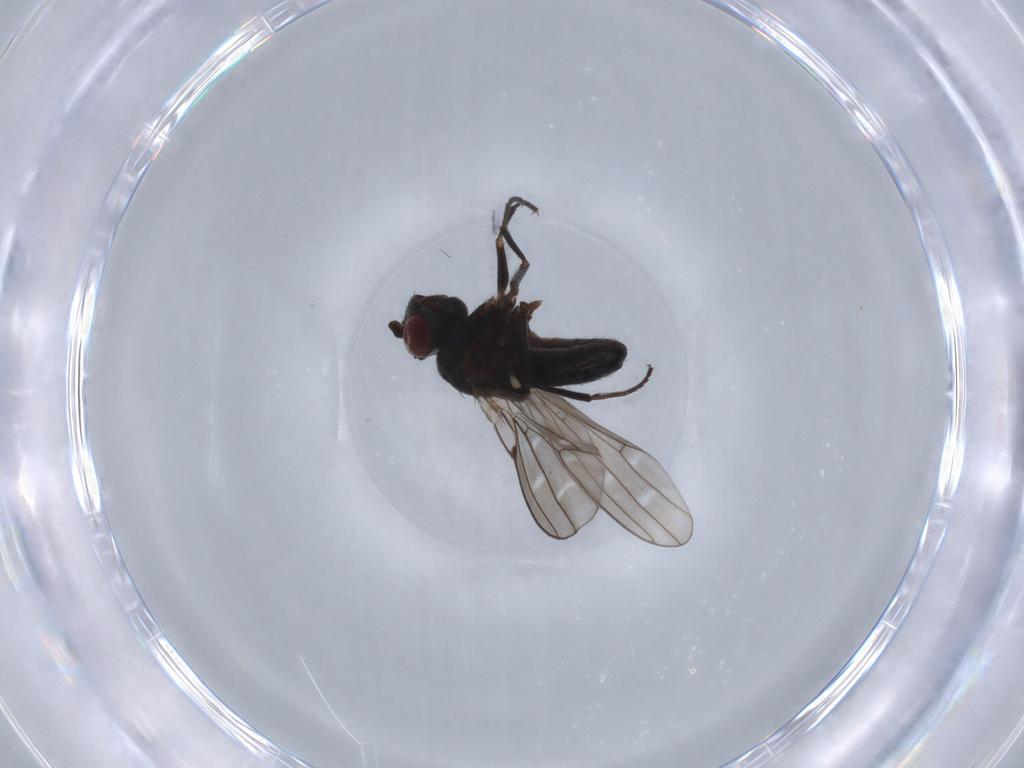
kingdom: Animalia
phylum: Arthropoda
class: Insecta
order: Diptera
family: Ephydridae
